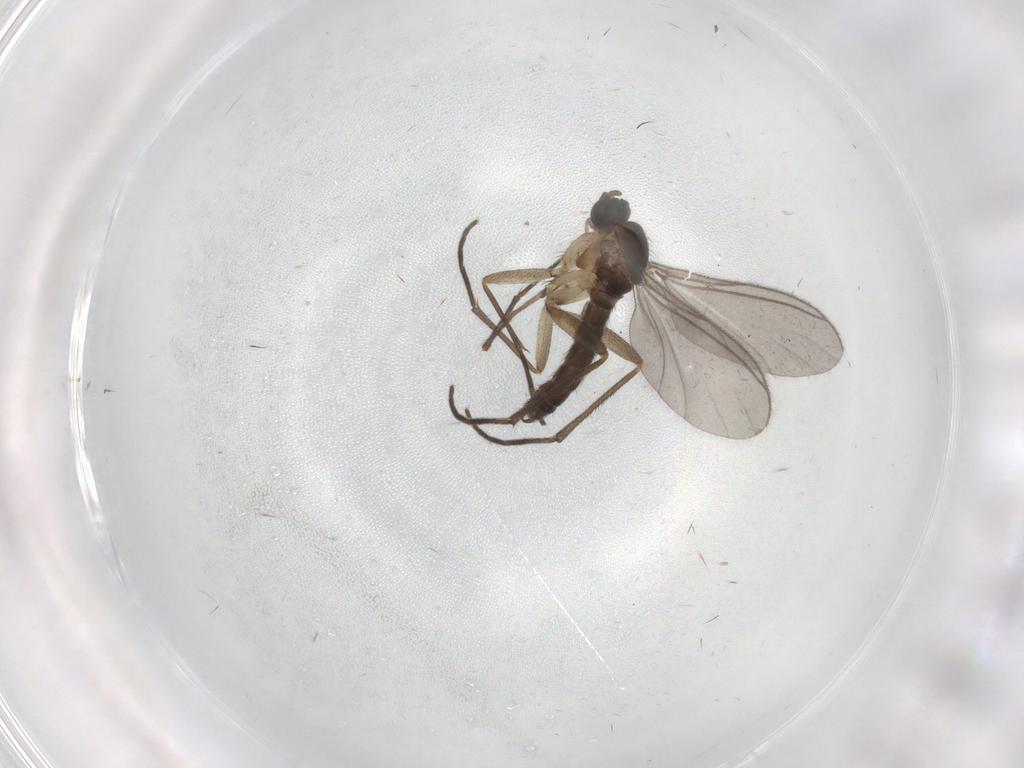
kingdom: Animalia
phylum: Arthropoda
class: Insecta
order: Diptera
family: Sciaridae
